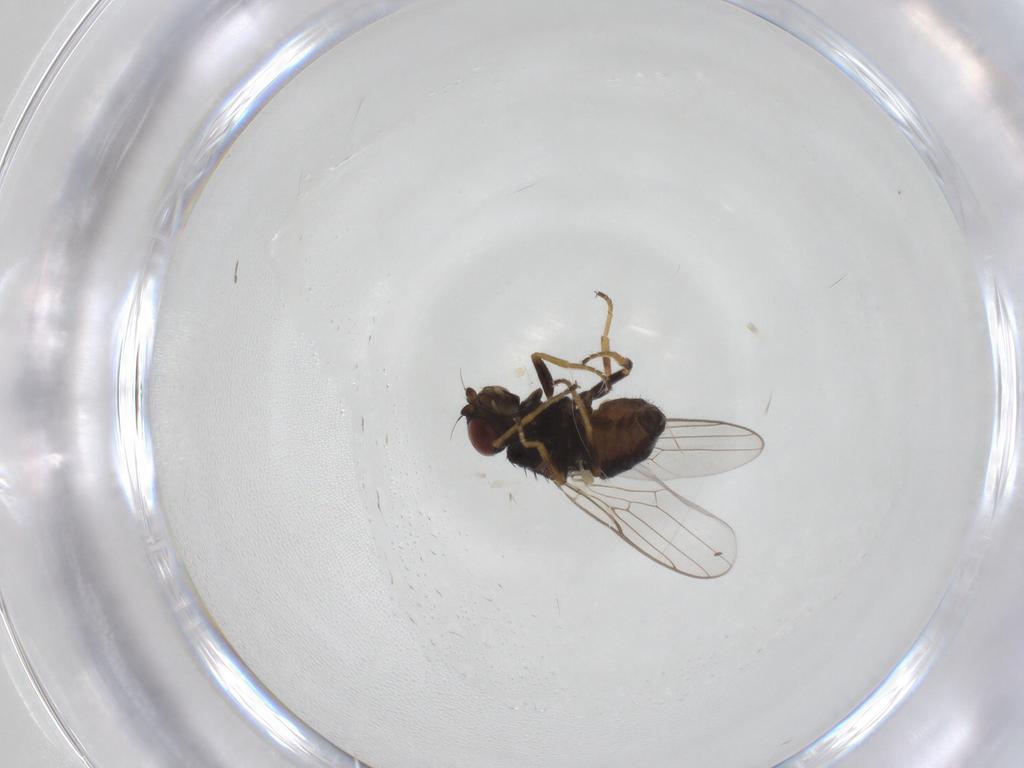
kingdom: Animalia
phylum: Arthropoda
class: Insecta
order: Diptera
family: Chloropidae
